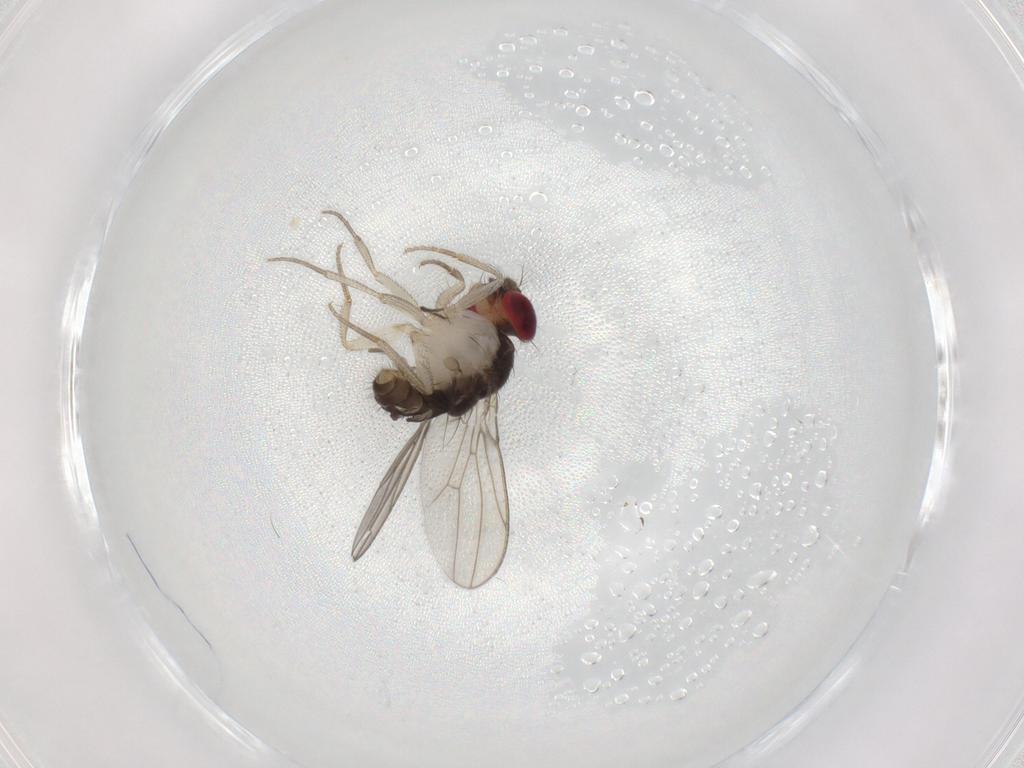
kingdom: Animalia
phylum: Arthropoda
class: Insecta
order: Diptera
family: Drosophilidae
